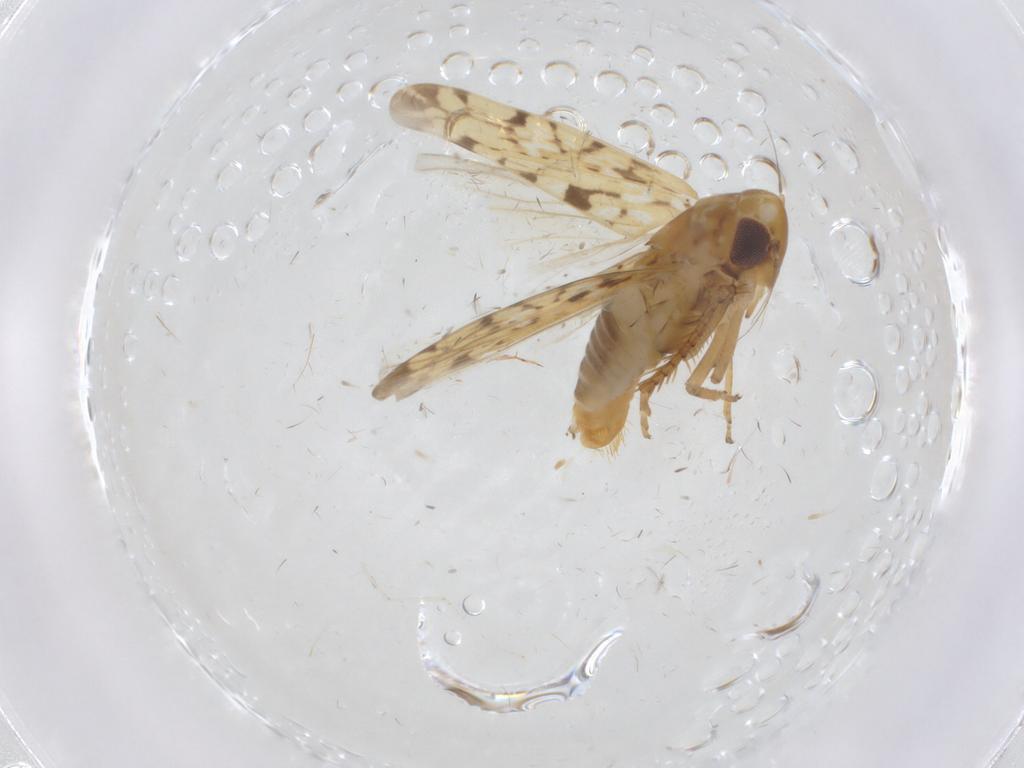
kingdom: Animalia
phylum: Arthropoda
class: Insecta
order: Hemiptera
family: Cicadellidae
